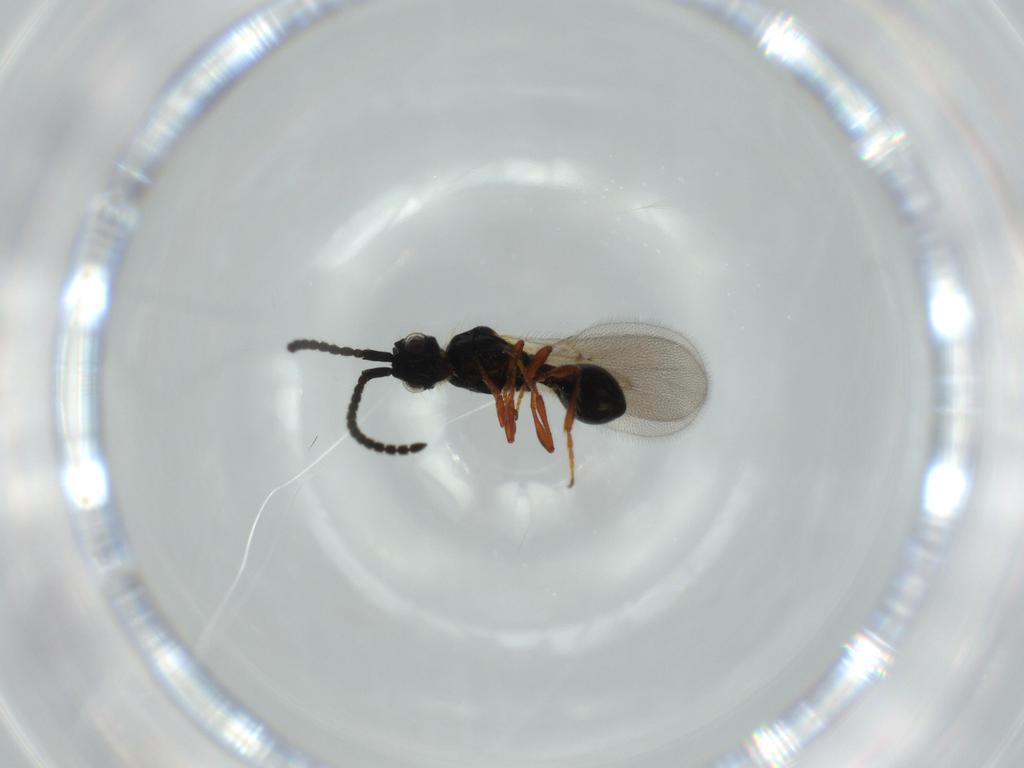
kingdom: Animalia
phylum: Arthropoda
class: Insecta
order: Hymenoptera
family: Diapriidae
